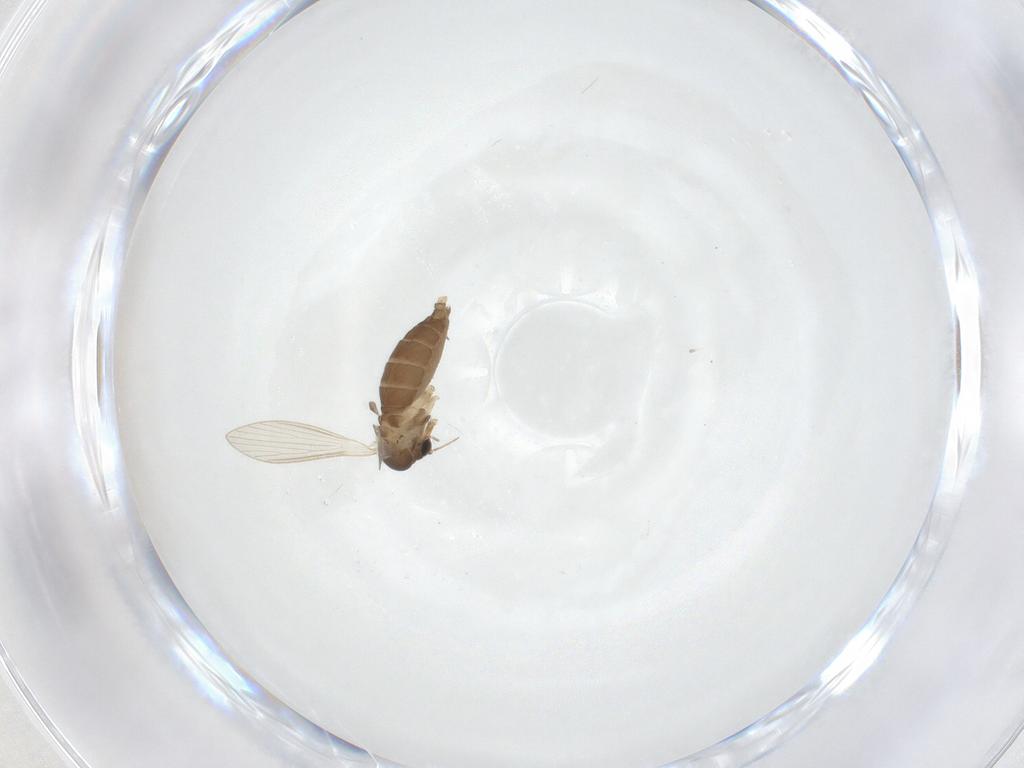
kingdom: Animalia
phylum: Arthropoda
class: Insecta
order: Diptera
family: Psychodidae
